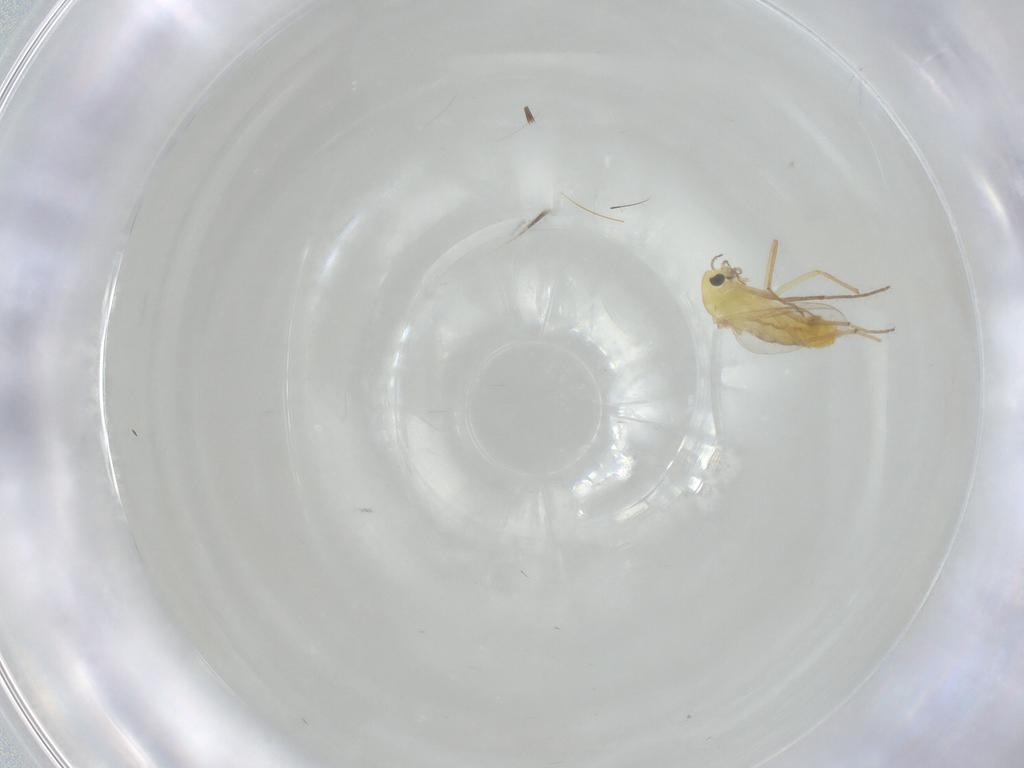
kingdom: Animalia
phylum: Arthropoda
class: Insecta
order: Diptera
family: Chironomidae
